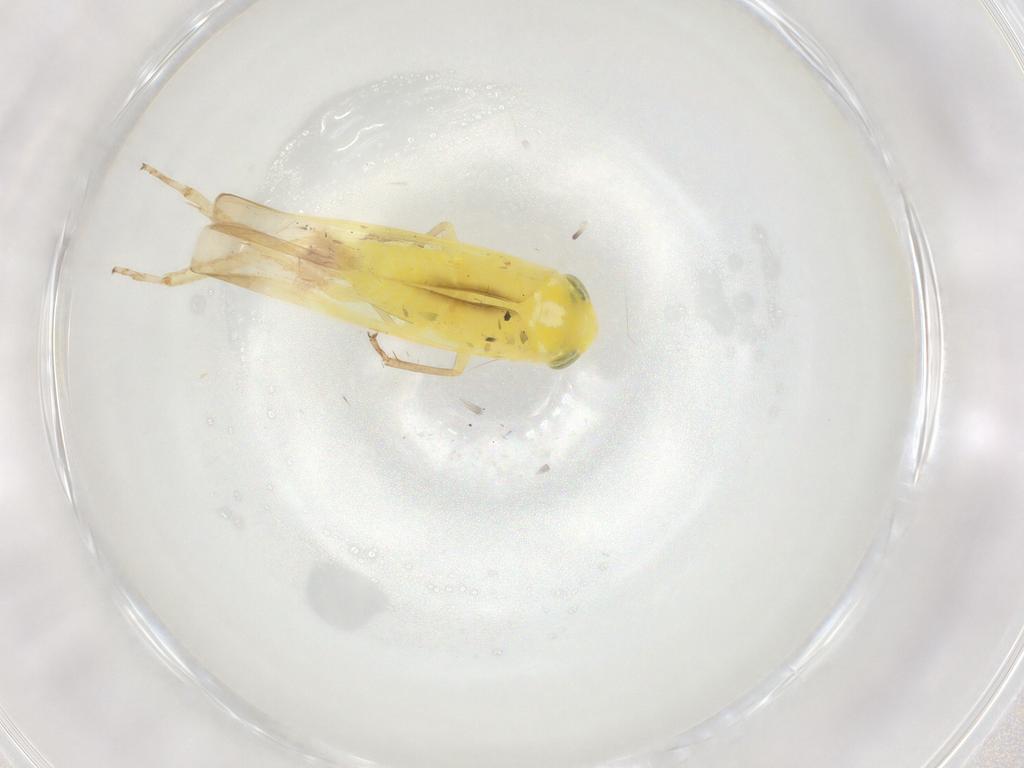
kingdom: Animalia
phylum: Arthropoda
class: Insecta
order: Hemiptera
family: Cicadellidae
